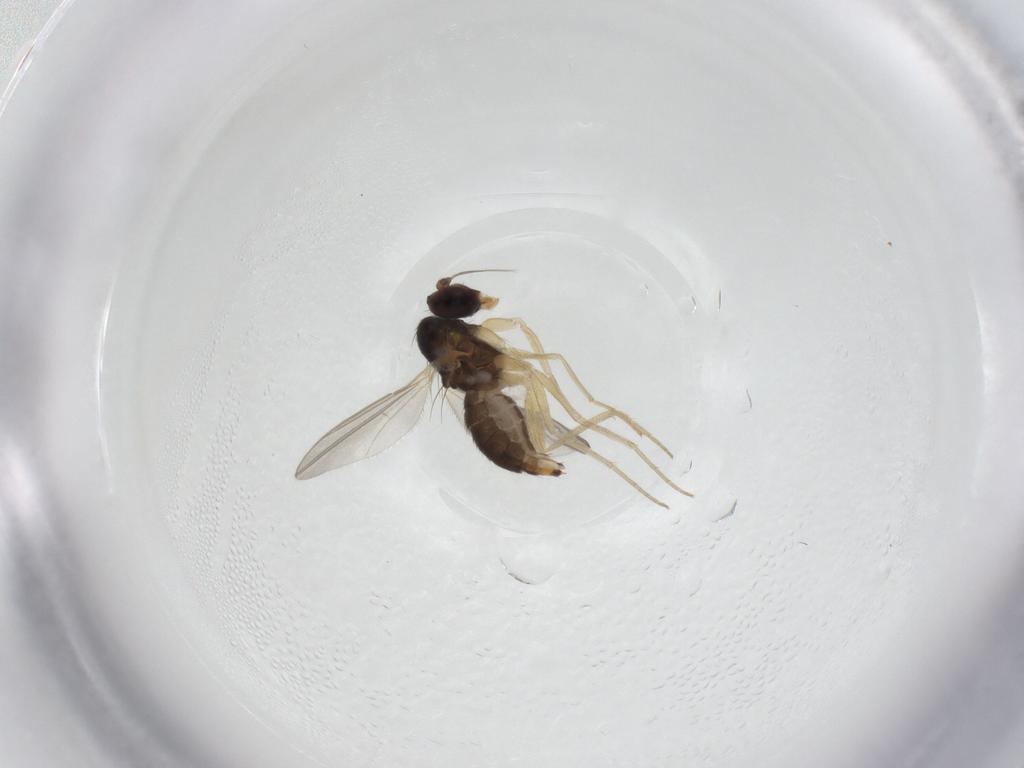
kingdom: Animalia
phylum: Arthropoda
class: Insecta
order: Diptera
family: Dolichopodidae
